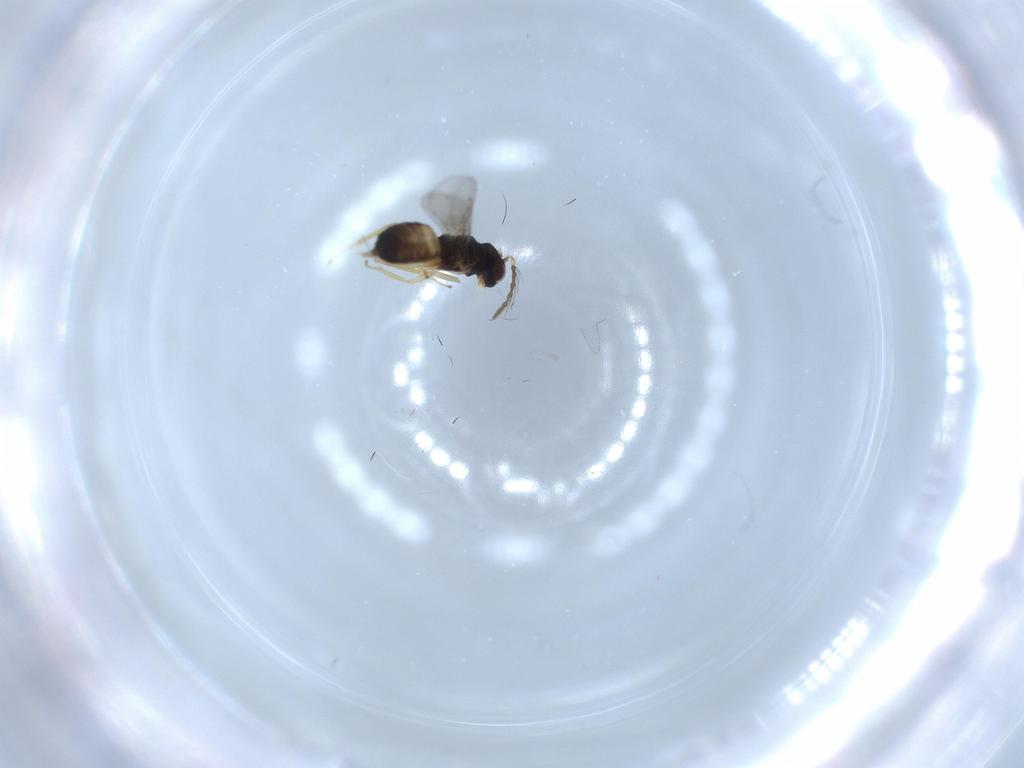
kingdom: Animalia
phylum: Arthropoda
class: Insecta
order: Hymenoptera
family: Eulophidae
